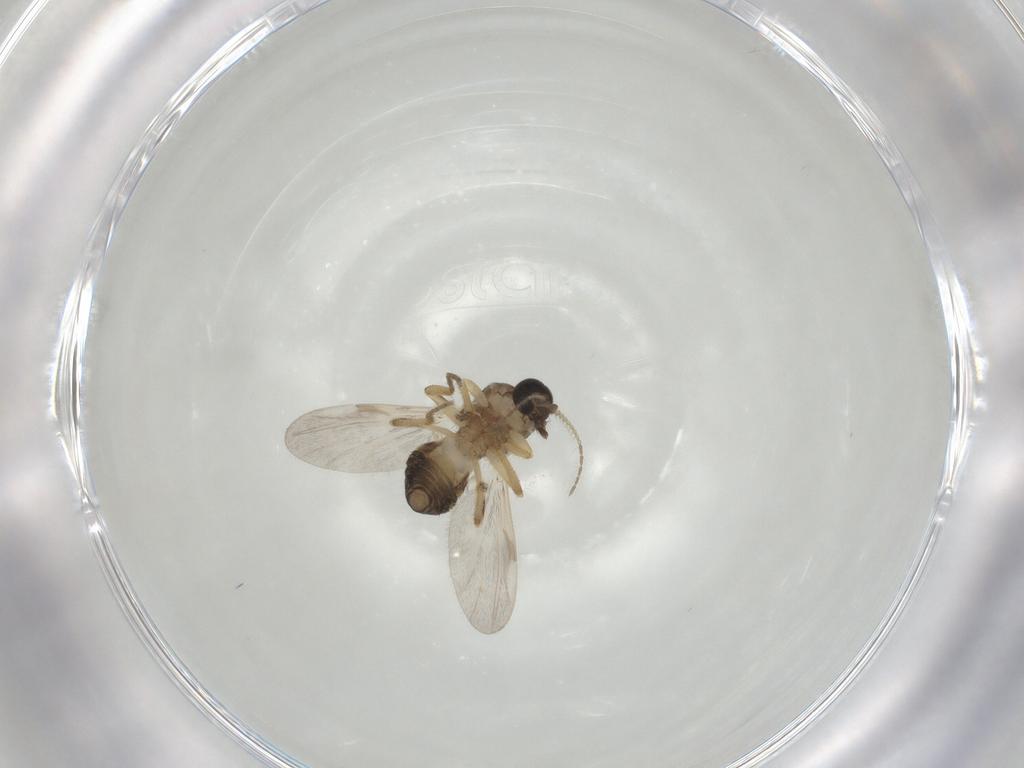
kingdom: Animalia
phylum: Arthropoda
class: Insecta
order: Diptera
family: Ceratopogonidae
